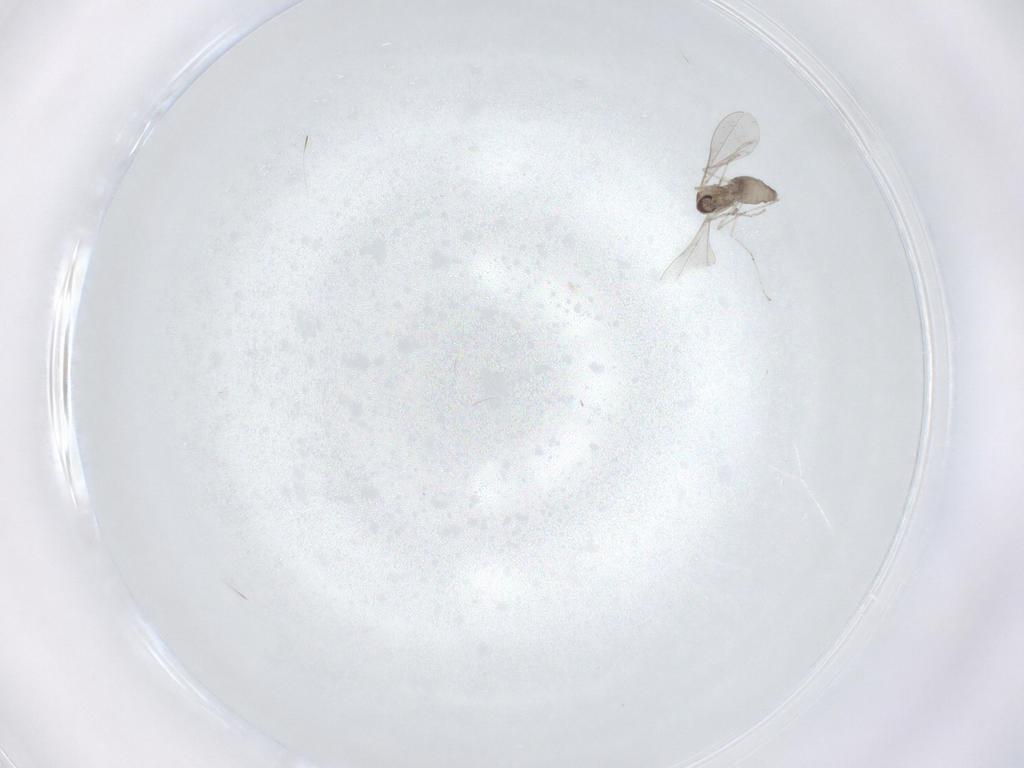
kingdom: Animalia
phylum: Arthropoda
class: Insecta
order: Diptera
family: Cecidomyiidae
